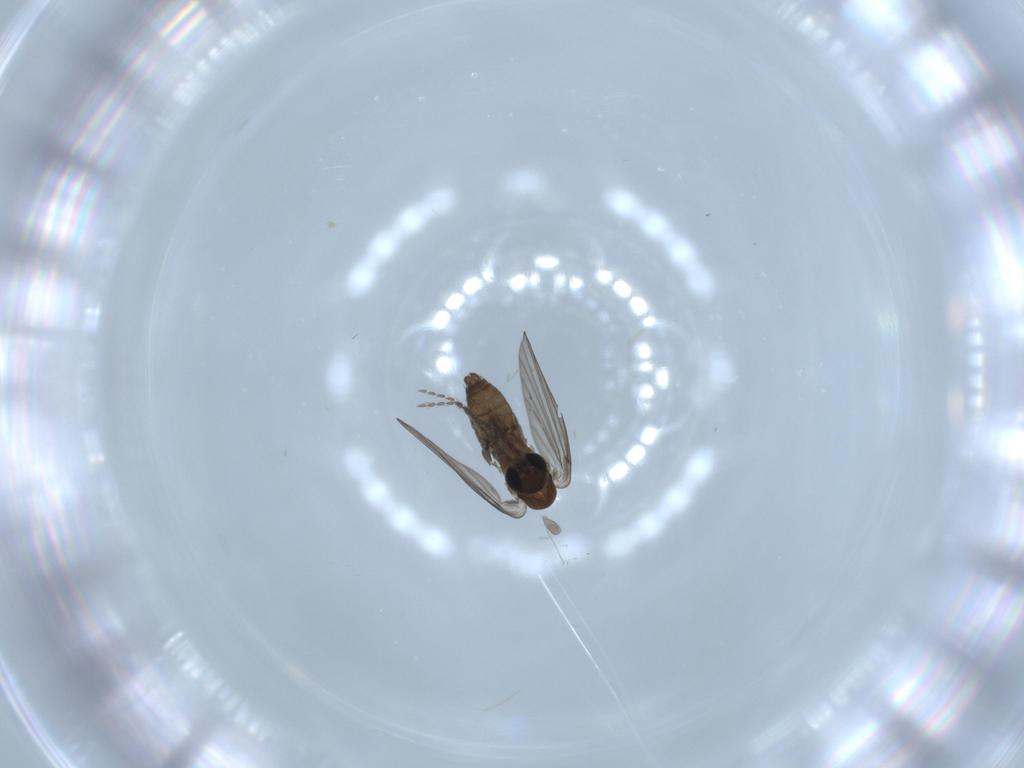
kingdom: Animalia
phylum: Arthropoda
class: Insecta
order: Diptera
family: Psychodidae
